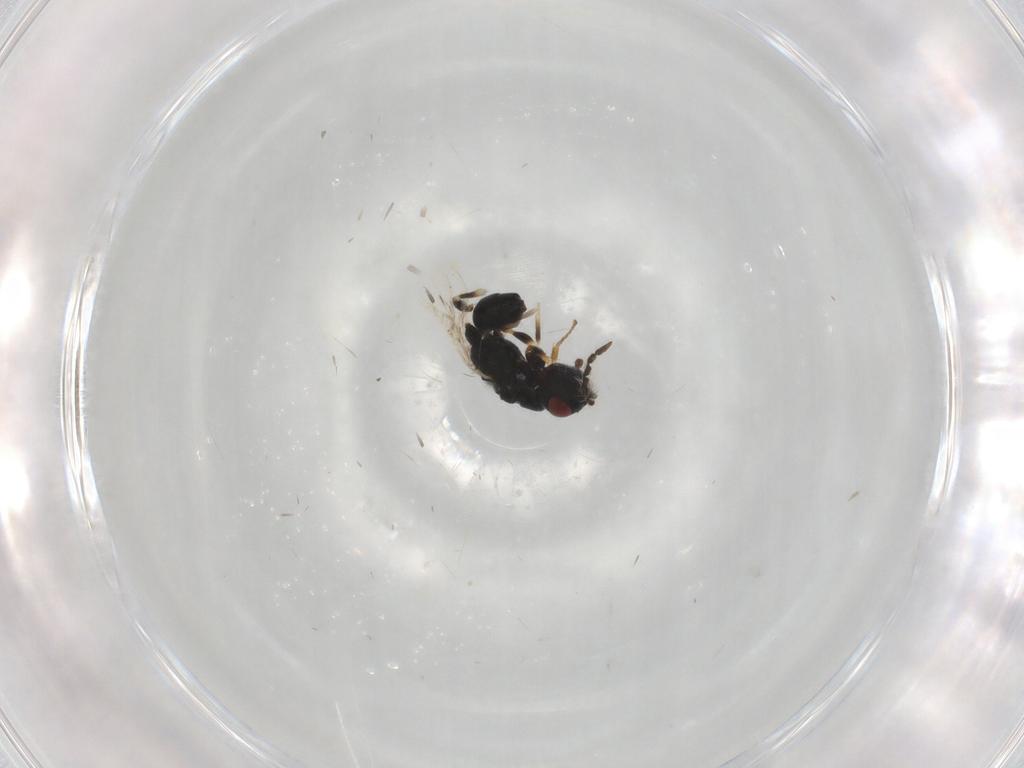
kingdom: Animalia
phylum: Arthropoda
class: Insecta
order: Hymenoptera
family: Eurytomidae
